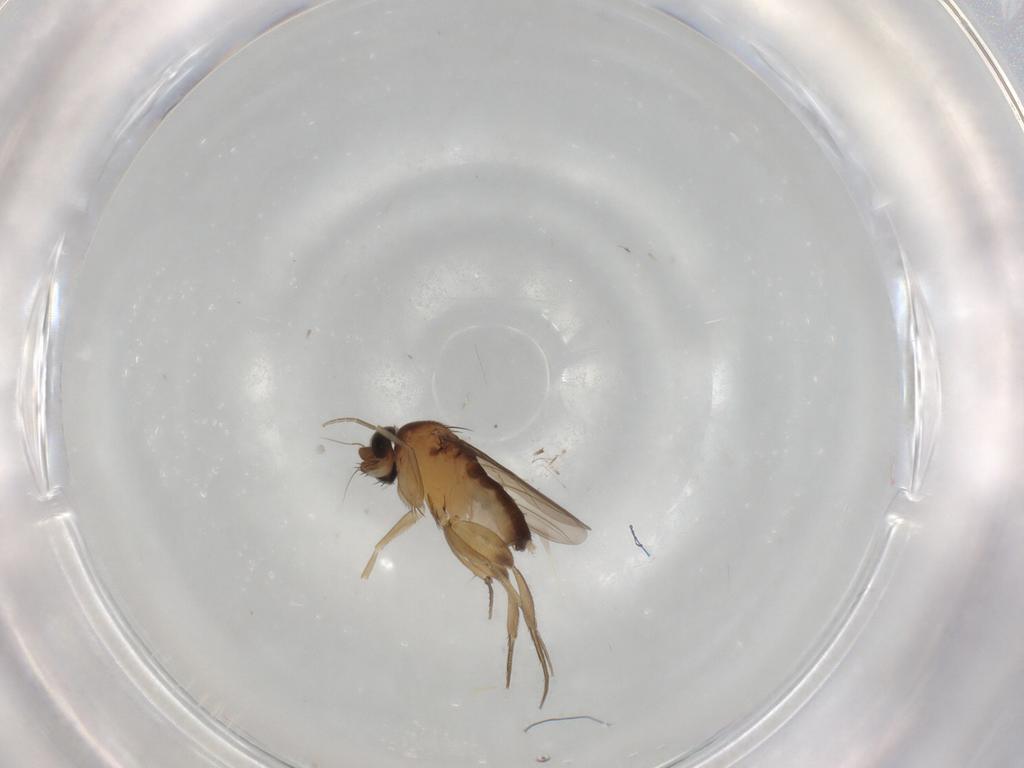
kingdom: Animalia
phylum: Arthropoda
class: Insecta
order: Diptera
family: Phoridae
